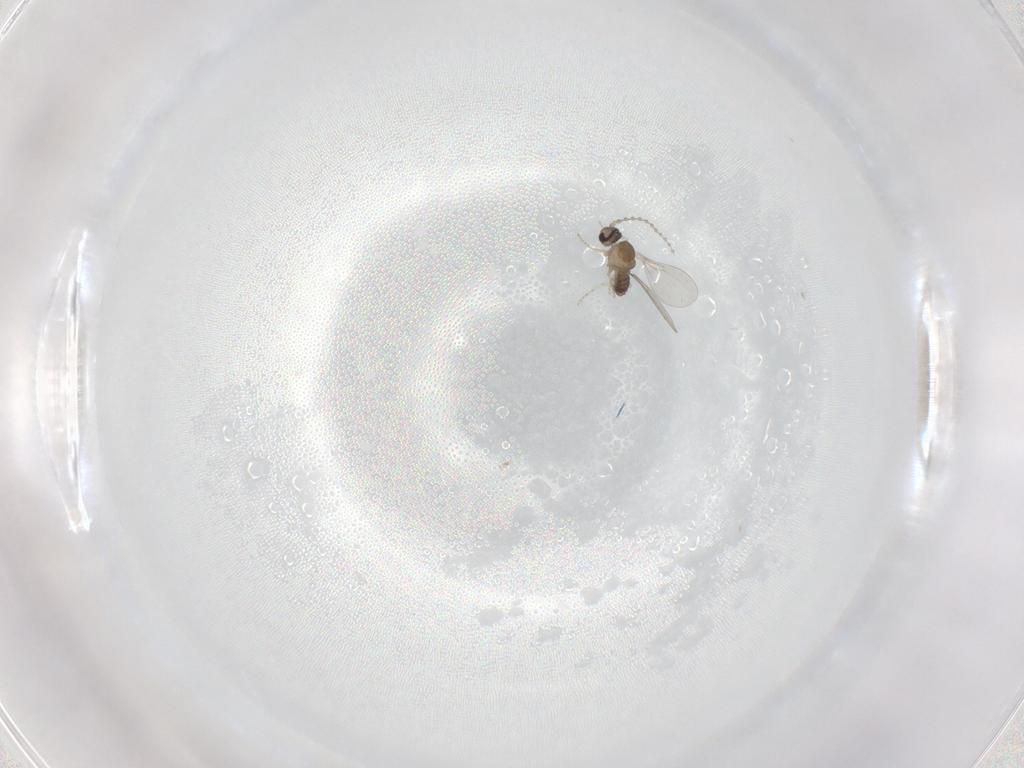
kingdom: Animalia
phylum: Arthropoda
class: Insecta
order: Diptera
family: Cecidomyiidae
